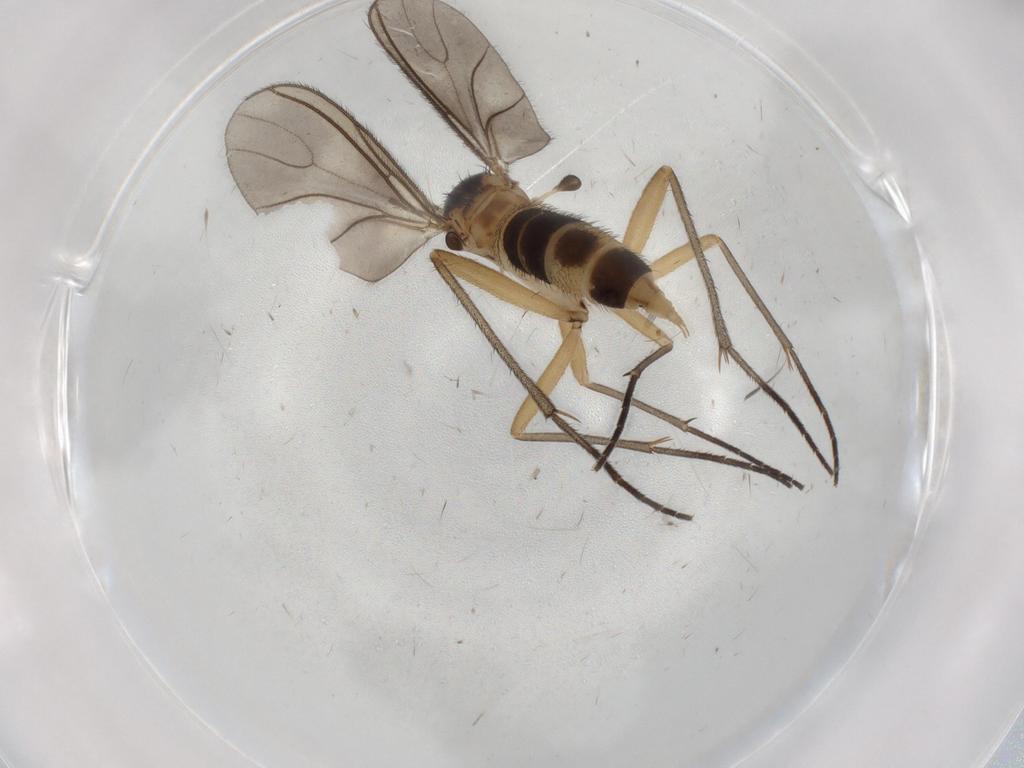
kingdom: Animalia
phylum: Arthropoda
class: Insecta
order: Diptera
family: Sciaridae
